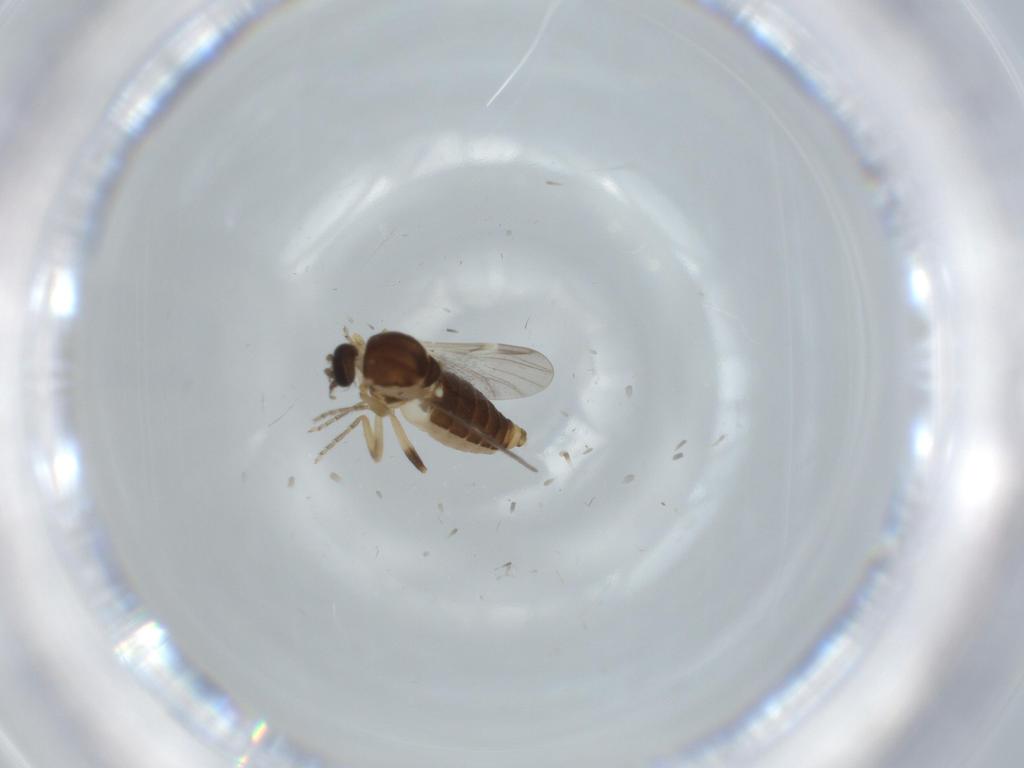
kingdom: Animalia
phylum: Arthropoda
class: Insecta
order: Diptera
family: Ceratopogonidae
